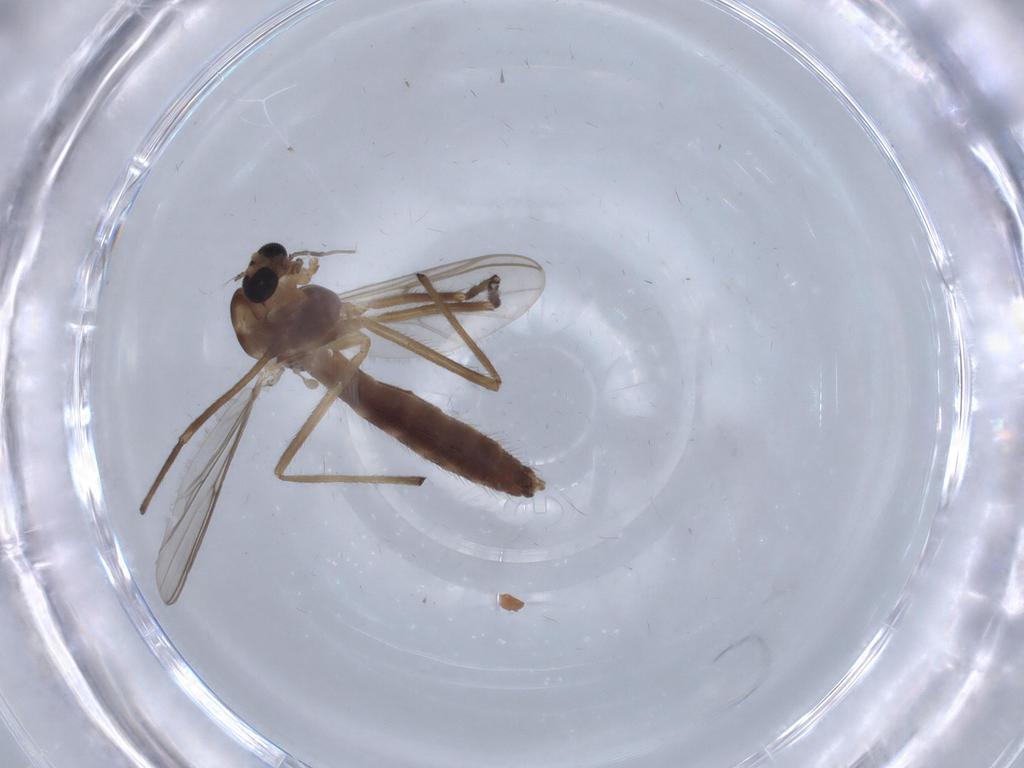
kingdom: Animalia
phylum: Arthropoda
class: Insecta
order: Diptera
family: Chironomidae
